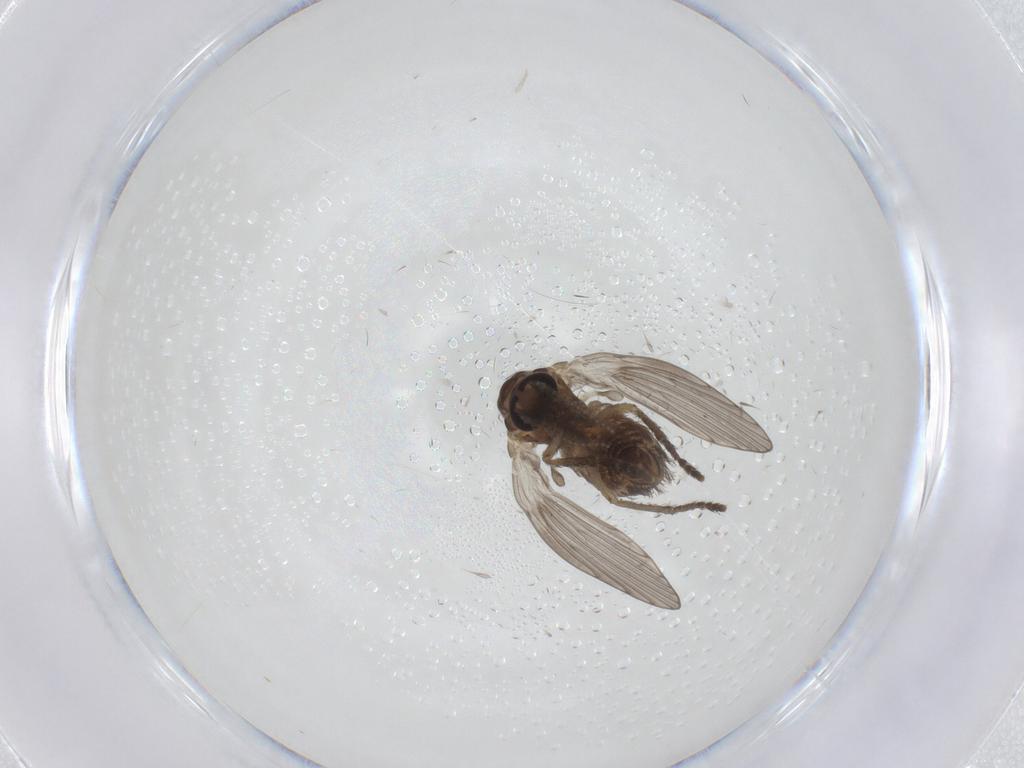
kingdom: Animalia
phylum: Arthropoda
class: Insecta
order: Diptera
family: Psychodidae
